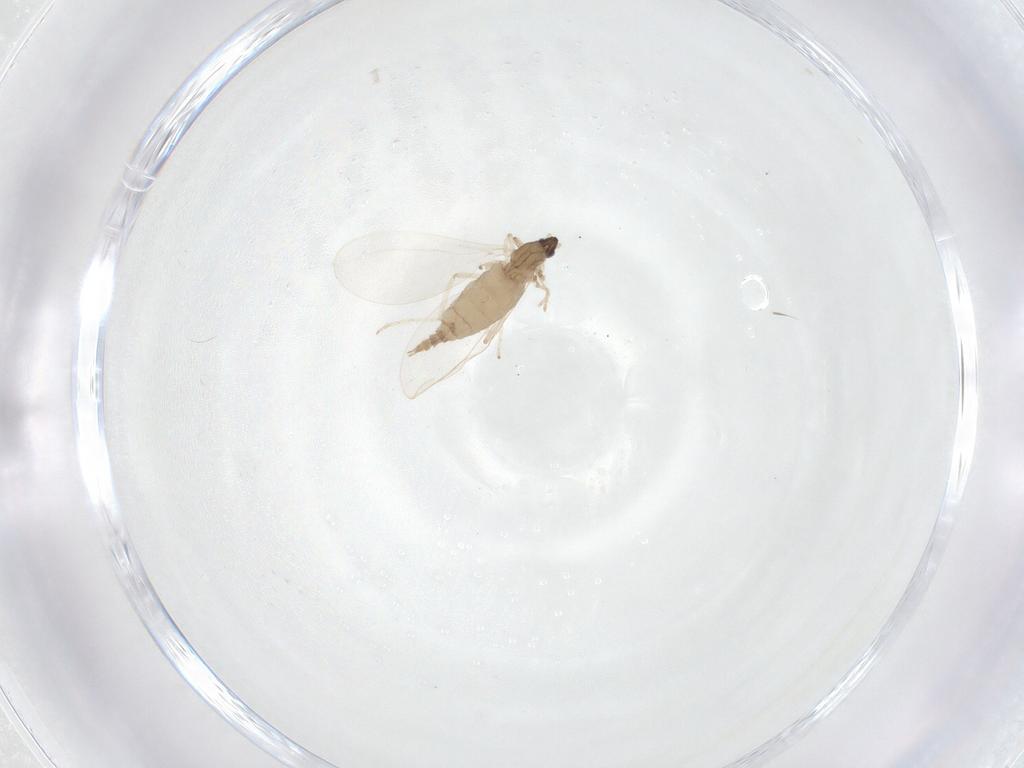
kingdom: Animalia
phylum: Arthropoda
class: Insecta
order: Diptera
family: Cecidomyiidae
